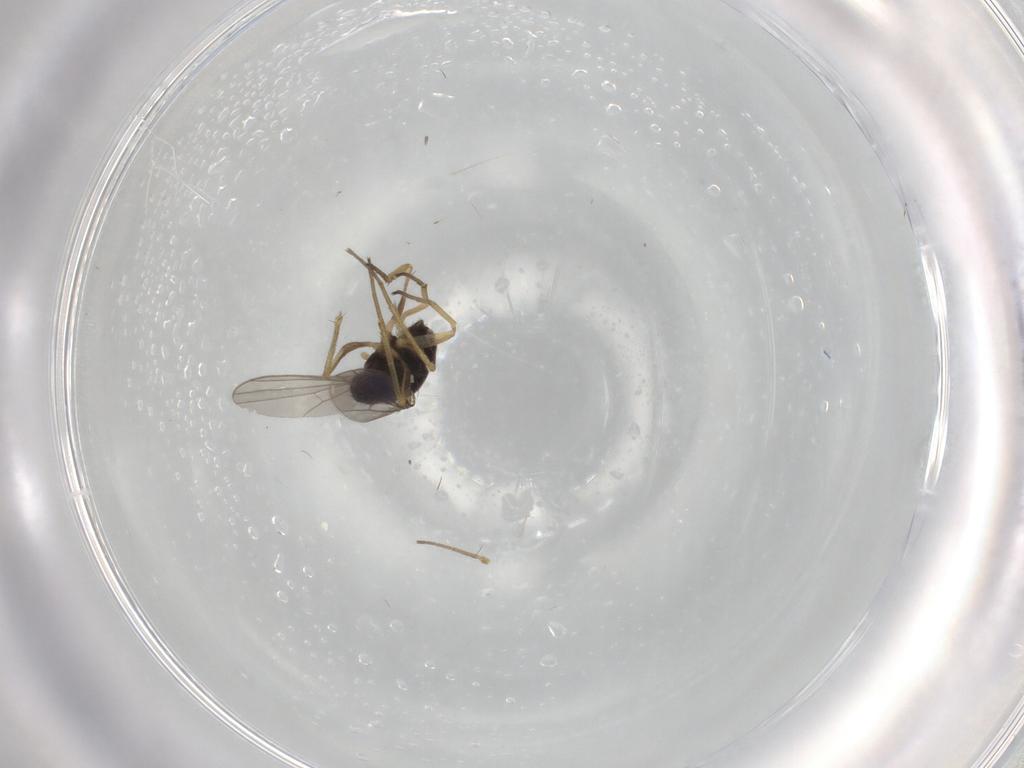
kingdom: Animalia
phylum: Arthropoda
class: Insecta
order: Diptera
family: Dolichopodidae
